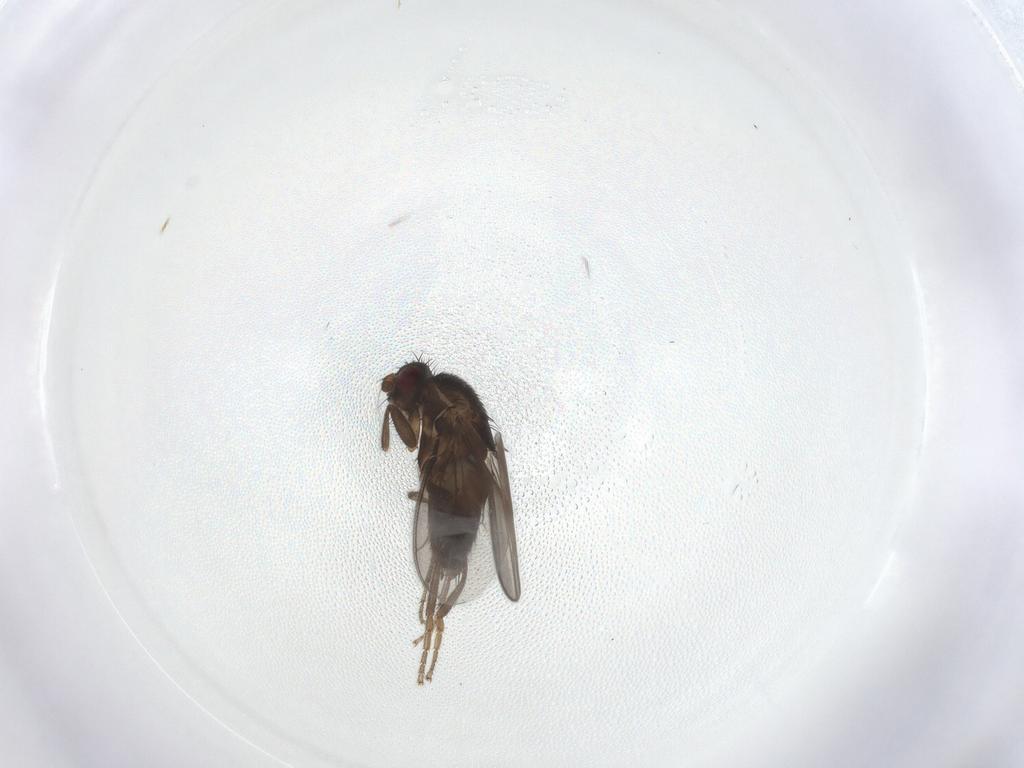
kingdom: Animalia
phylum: Arthropoda
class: Insecta
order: Diptera
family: Sphaeroceridae
